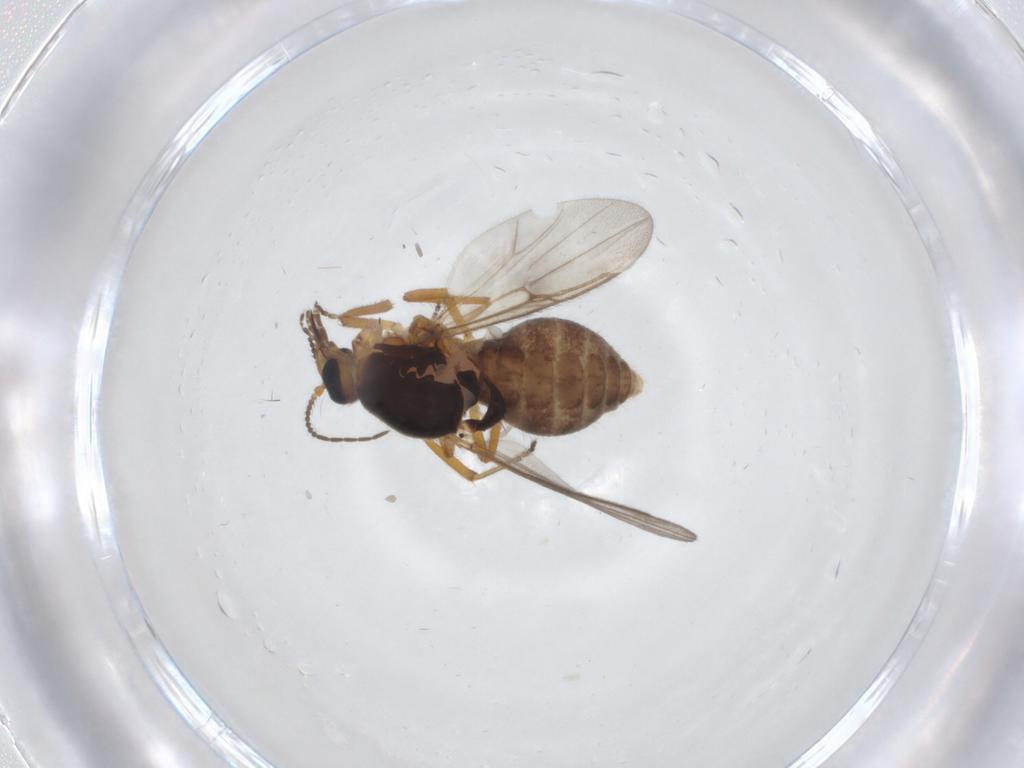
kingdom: Animalia
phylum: Arthropoda
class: Insecta
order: Diptera
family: Ceratopogonidae
